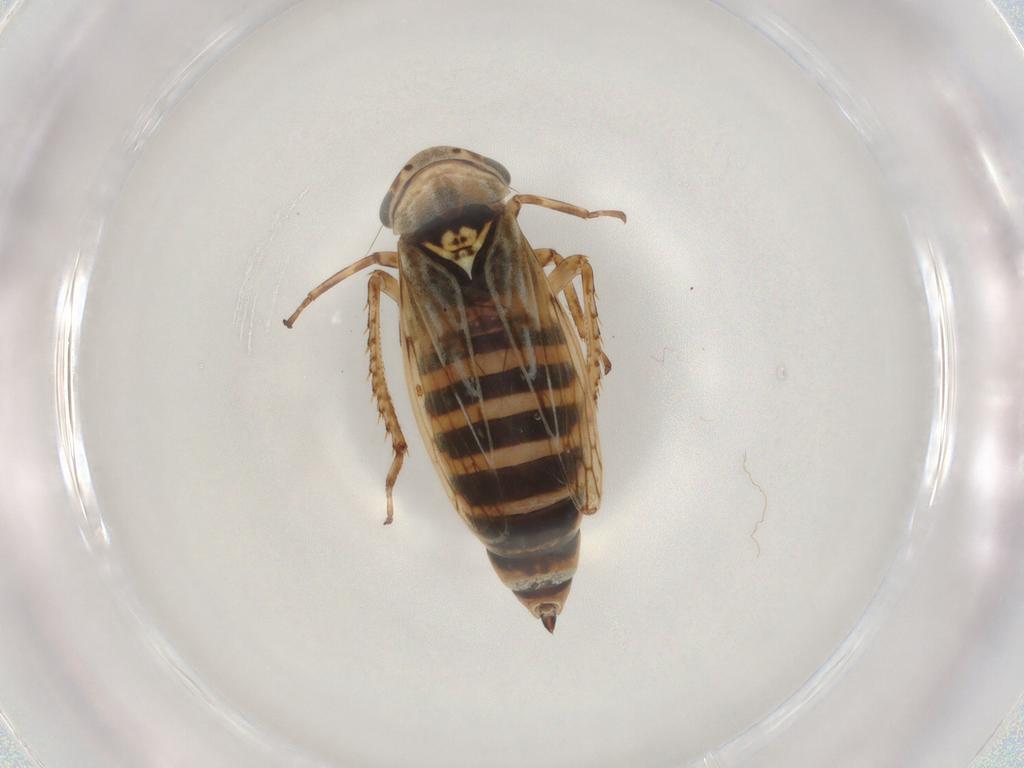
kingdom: Animalia
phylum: Arthropoda
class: Insecta
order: Hemiptera
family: Cicadellidae
